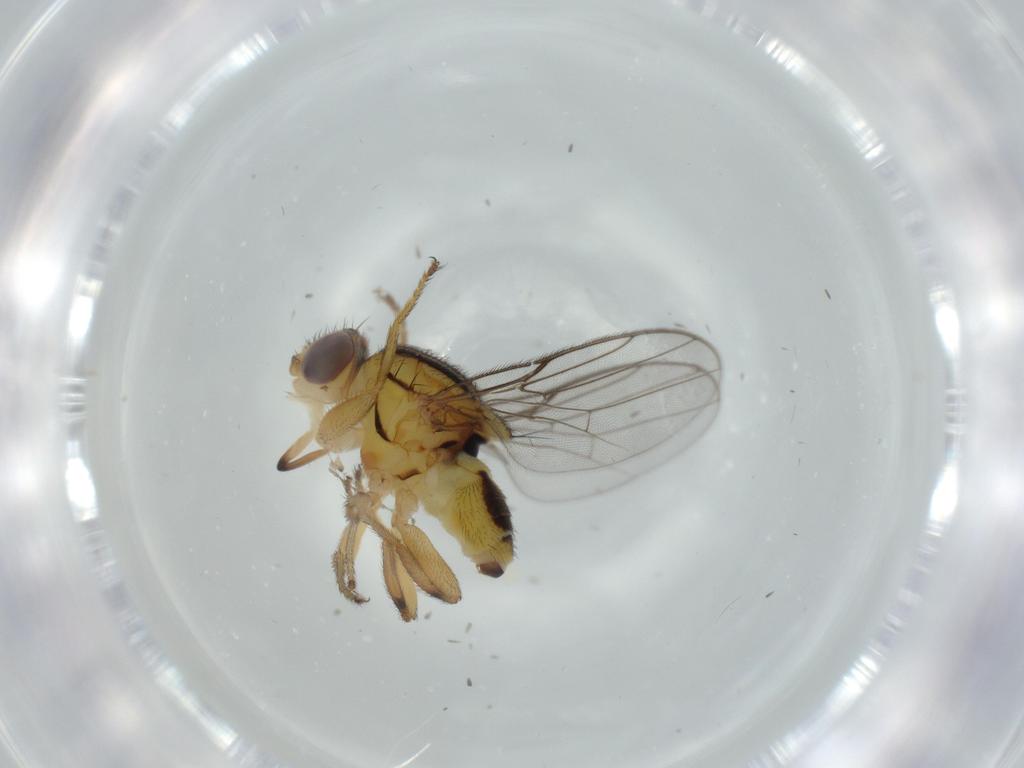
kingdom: Animalia
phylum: Arthropoda
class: Insecta
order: Diptera
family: Chloropidae
